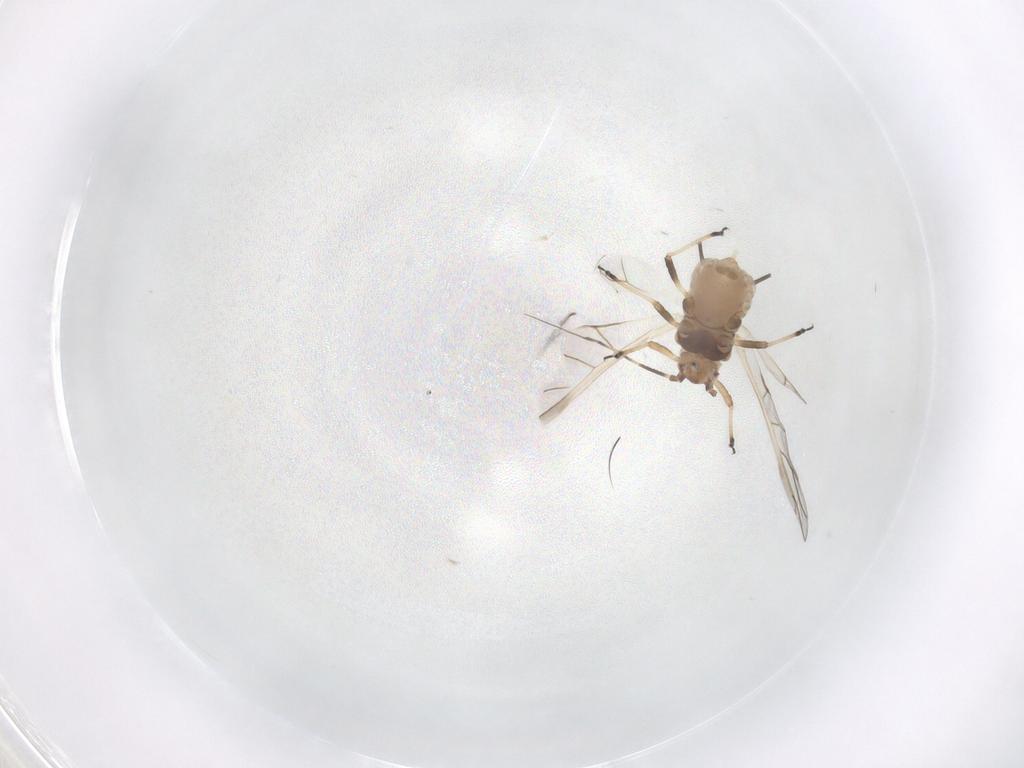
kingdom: Animalia
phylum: Arthropoda
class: Insecta
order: Hemiptera
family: Aphididae
